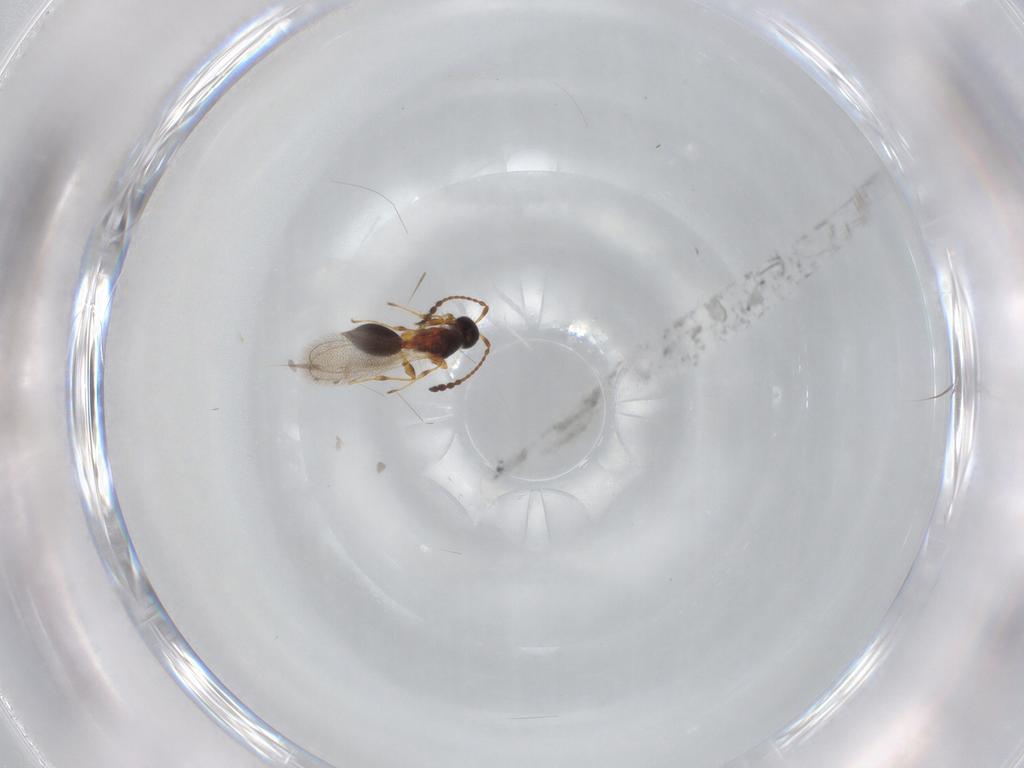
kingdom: Animalia
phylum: Arthropoda
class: Insecta
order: Hymenoptera
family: Diapriidae
